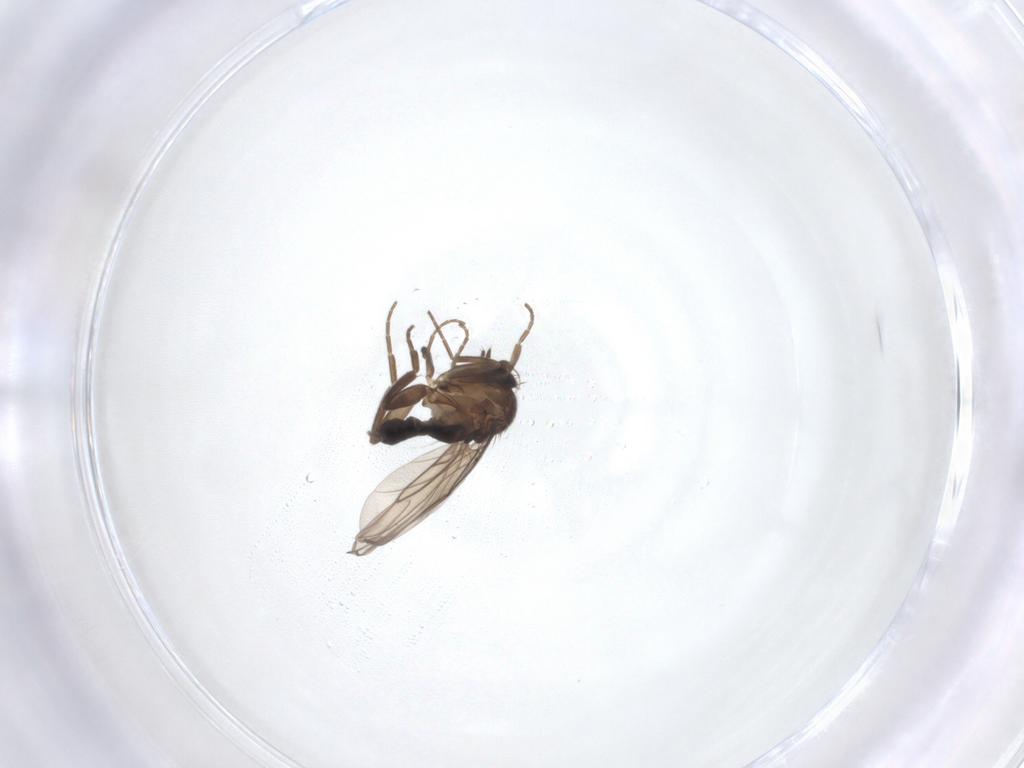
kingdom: Animalia
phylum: Arthropoda
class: Insecta
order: Diptera
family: Phoridae
